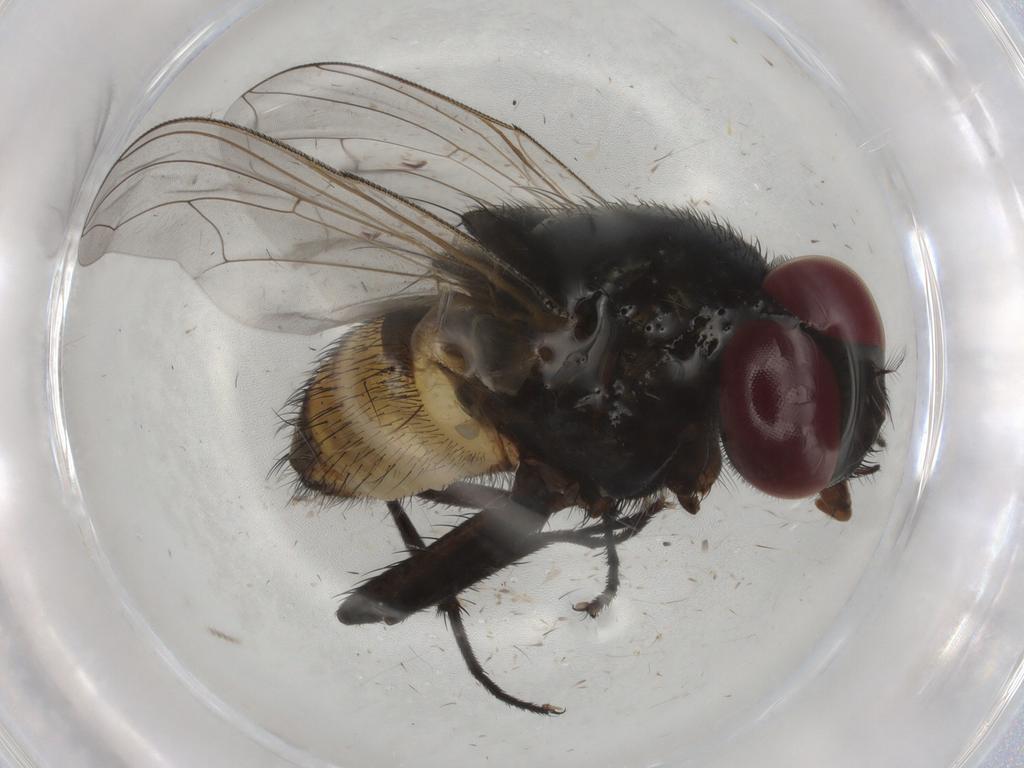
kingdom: Animalia
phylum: Arthropoda
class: Insecta
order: Diptera
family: Muscidae
